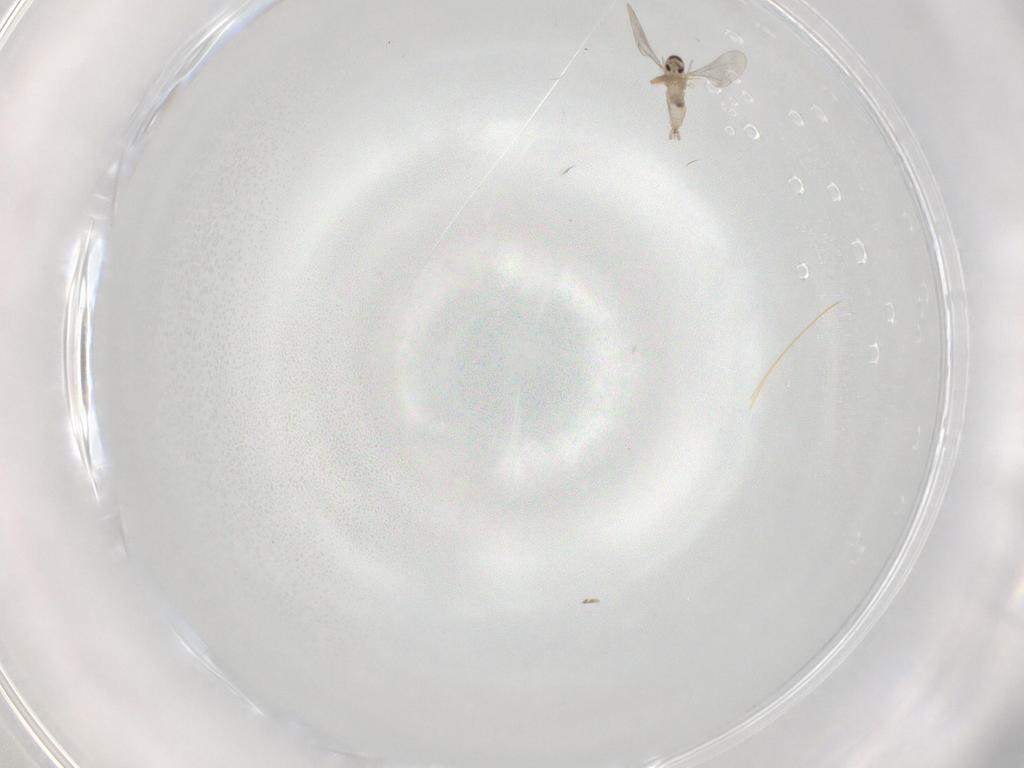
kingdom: Animalia
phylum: Arthropoda
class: Insecta
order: Diptera
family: Cecidomyiidae
